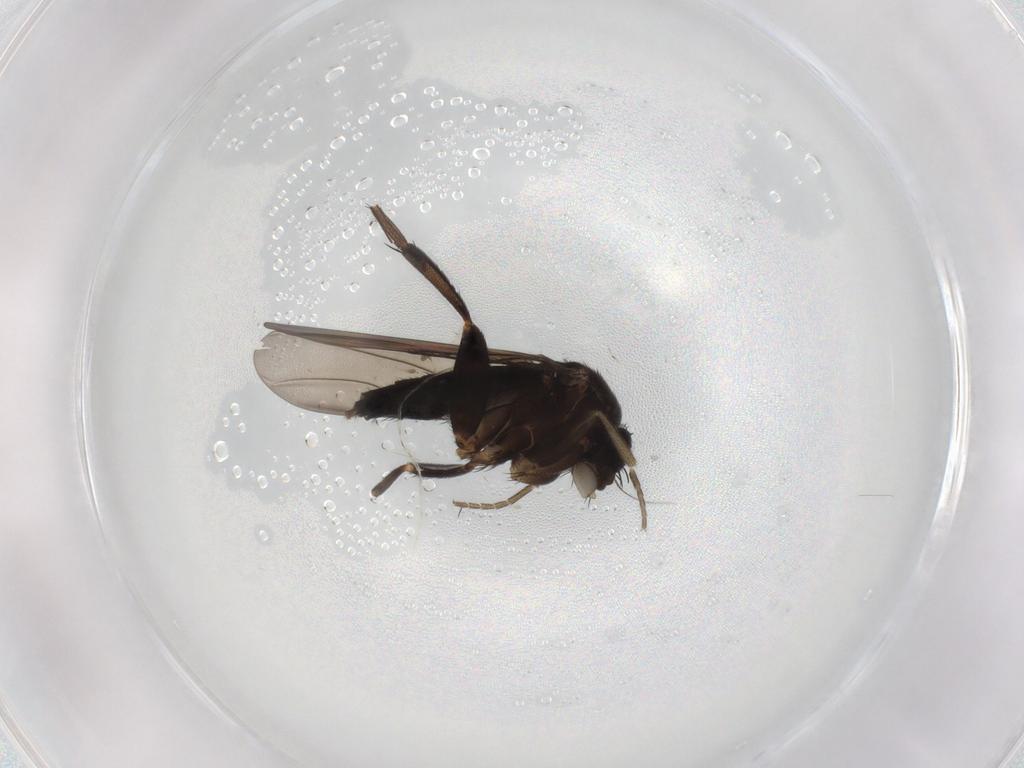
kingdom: Animalia
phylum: Arthropoda
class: Insecta
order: Diptera
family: Phoridae
